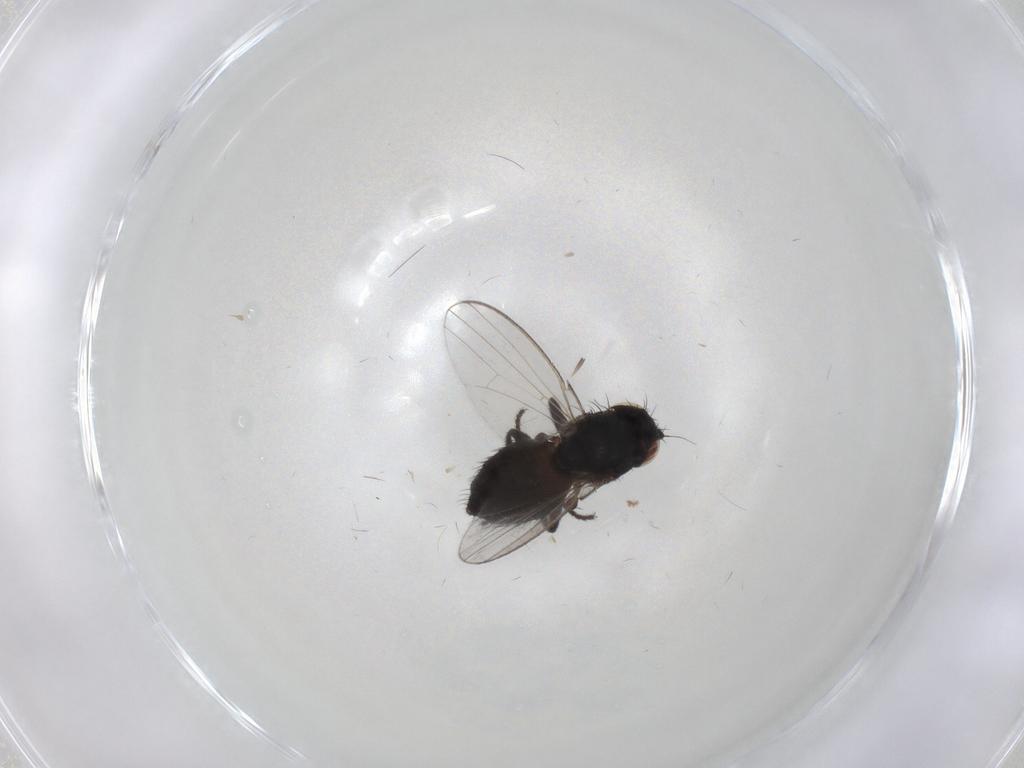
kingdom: Animalia
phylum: Arthropoda
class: Insecta
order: Diptera
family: Milichiidae
